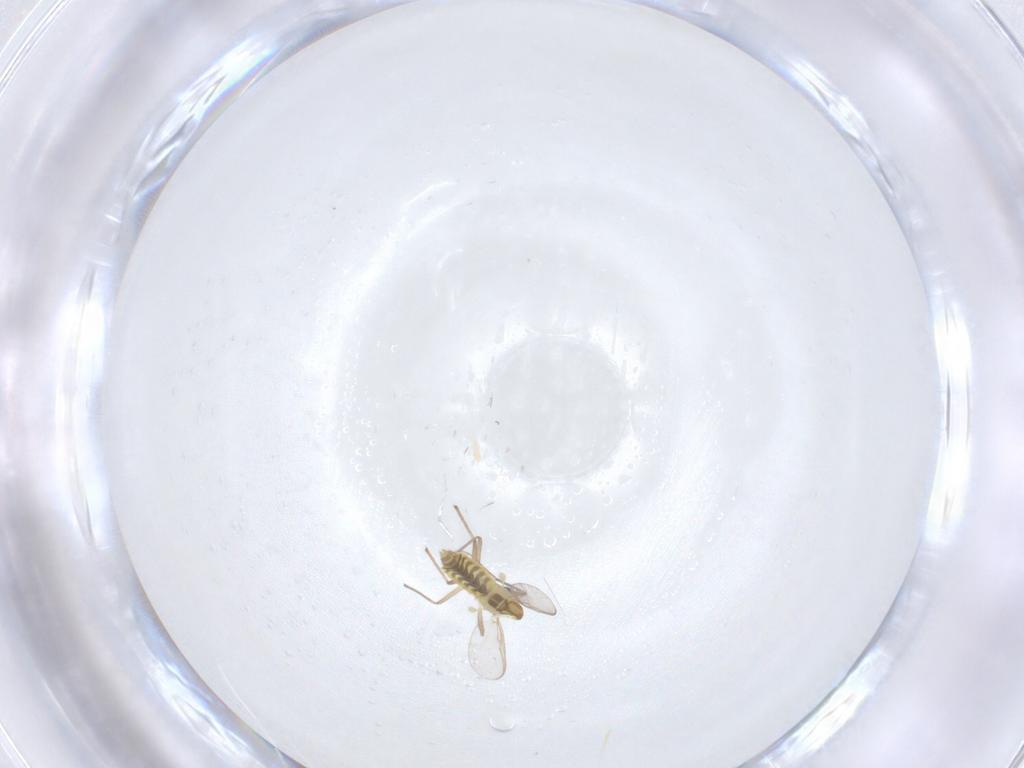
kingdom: Animalia
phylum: Arthropoda
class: Insecta
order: Diptera
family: Chironomidae
